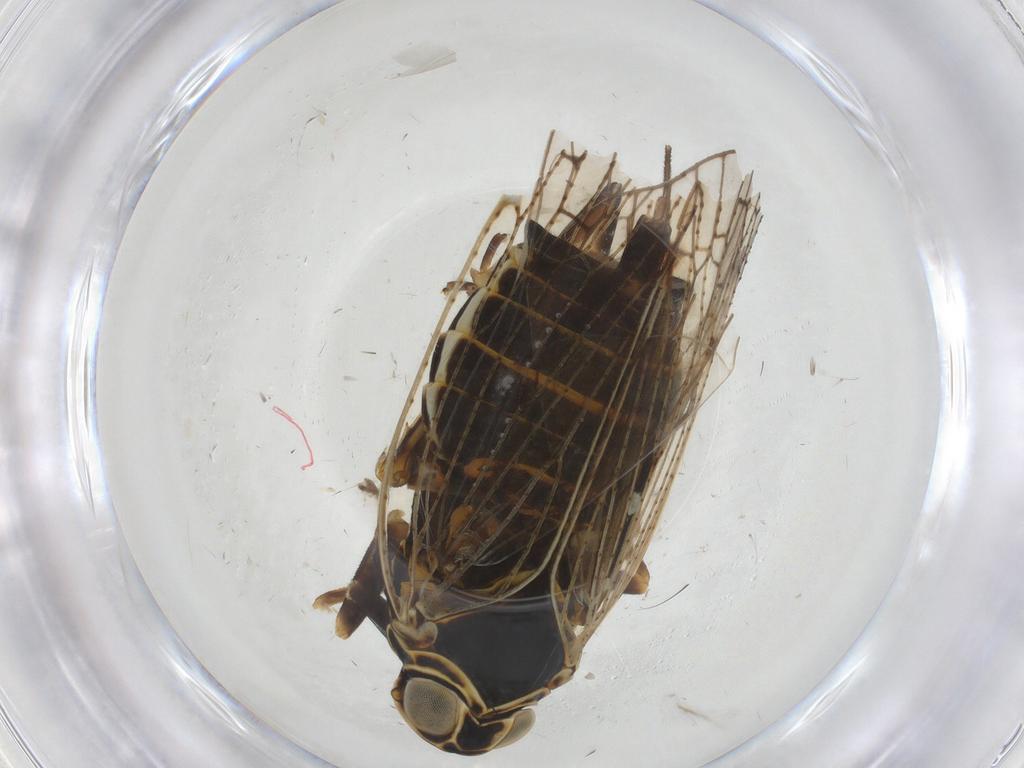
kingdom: Animalia
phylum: Arthropoda
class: Insecta
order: Hemiptera
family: Cixiidae
